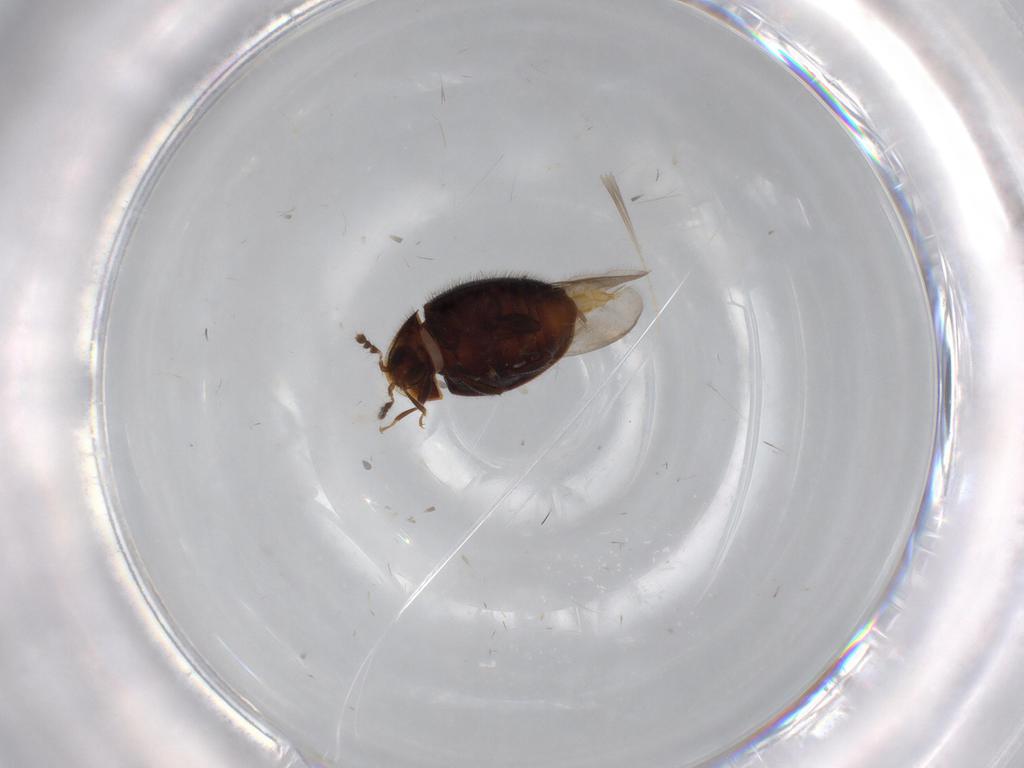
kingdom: Animalia
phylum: Arthropoda
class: Insecta
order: Coleoptera
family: Corylophidae
